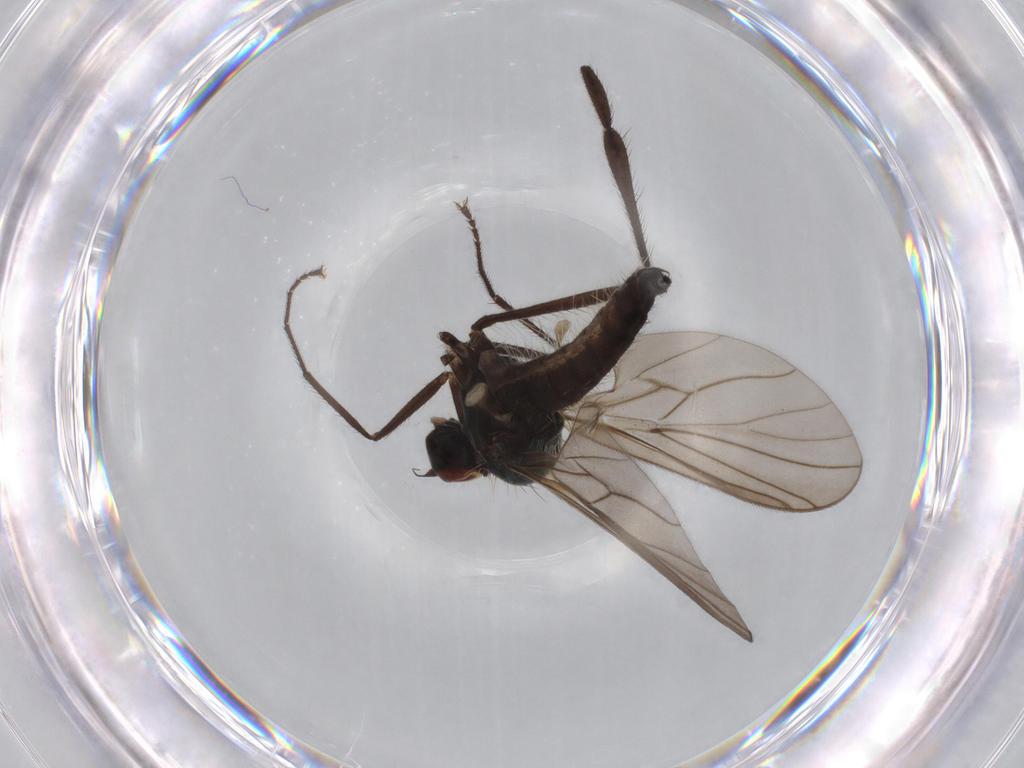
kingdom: Animalia
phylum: Arthropoda
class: Insecta
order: Diptera
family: Hybotidae
